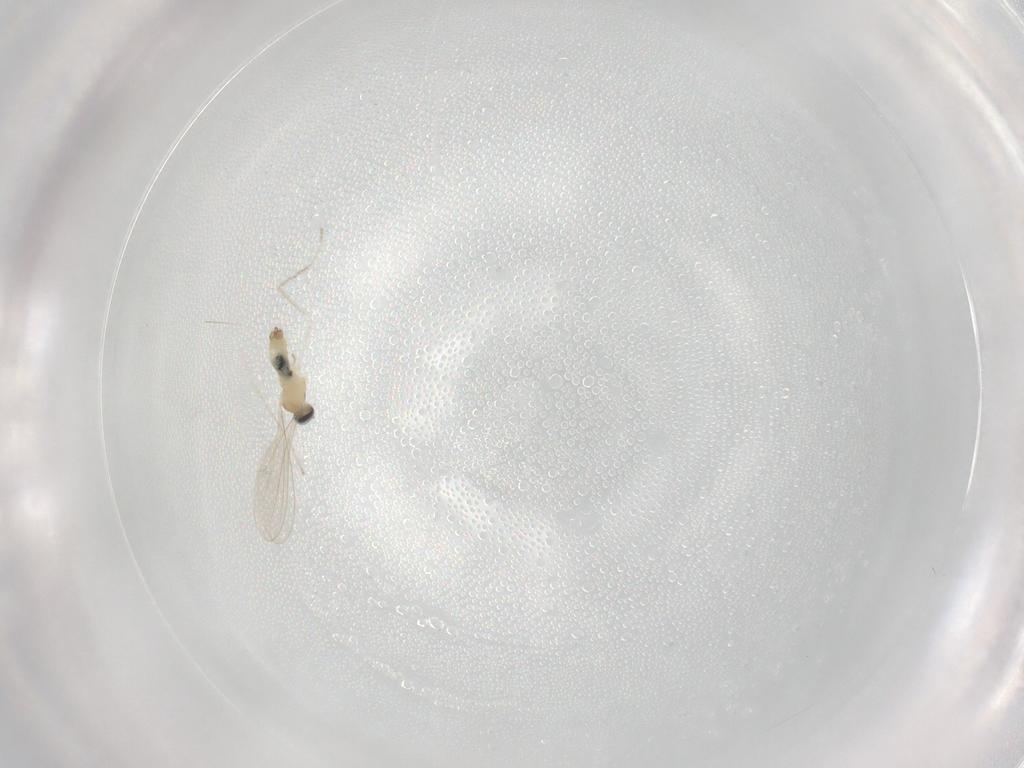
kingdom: Animalia
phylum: Arthropoda
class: Insecta
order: Diptera
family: Cecidomyiidae
